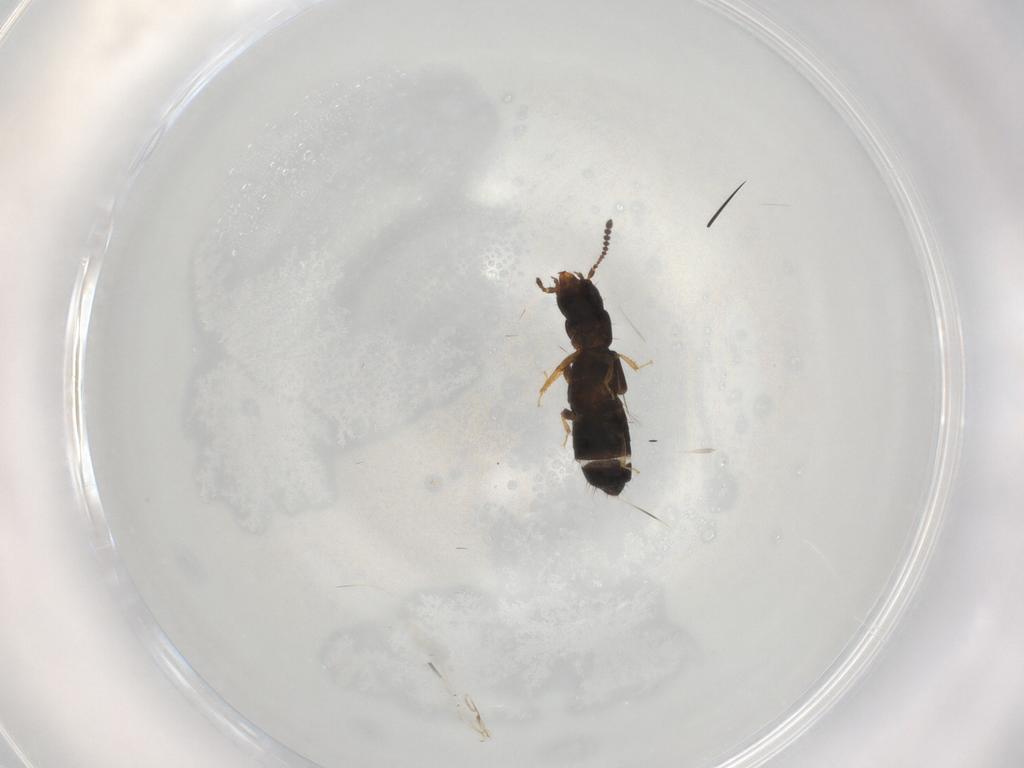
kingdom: Animalia
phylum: Arthropoda
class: Insecta
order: Coleoptera
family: Staphylinidae
